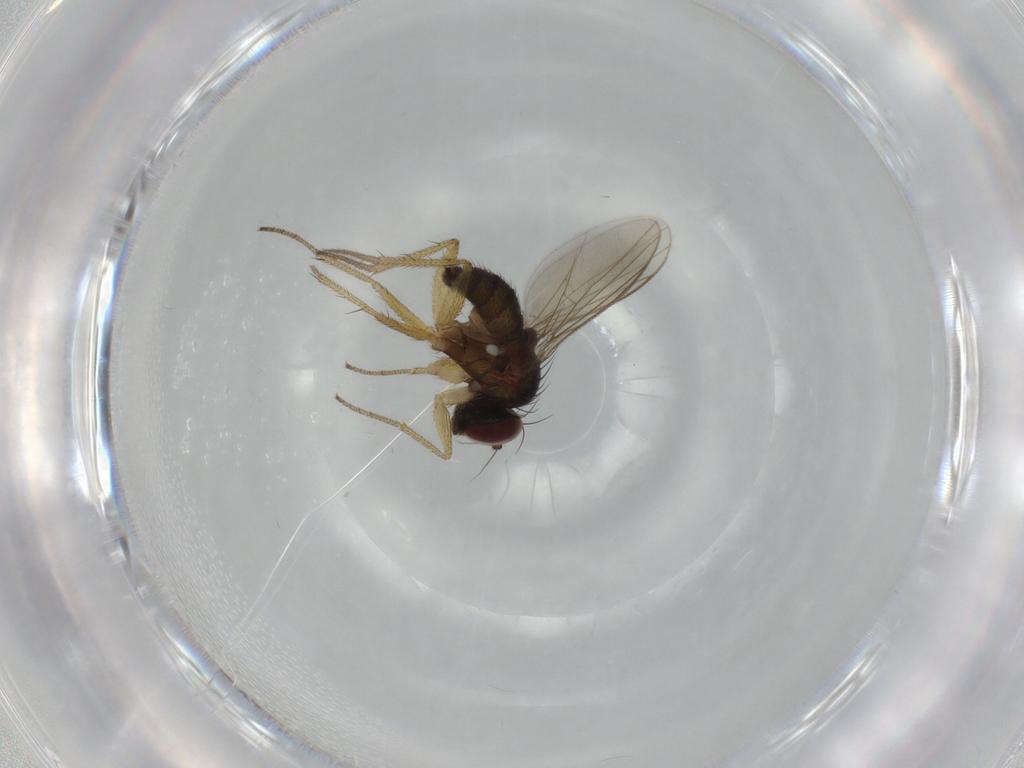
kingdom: Animalia
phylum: Arthropoda
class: Insecta
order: Diptera
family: Dolichopodidae
